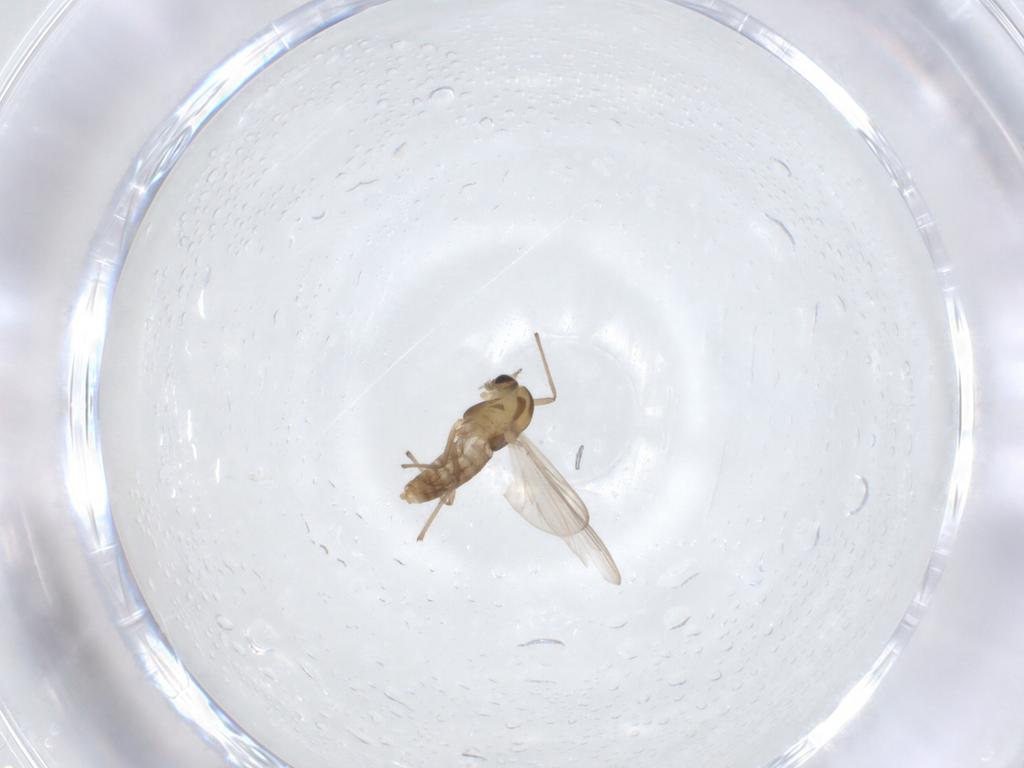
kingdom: Animalia
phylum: Arthropoda
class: Insecta
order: Diptera
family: Chironomidae
